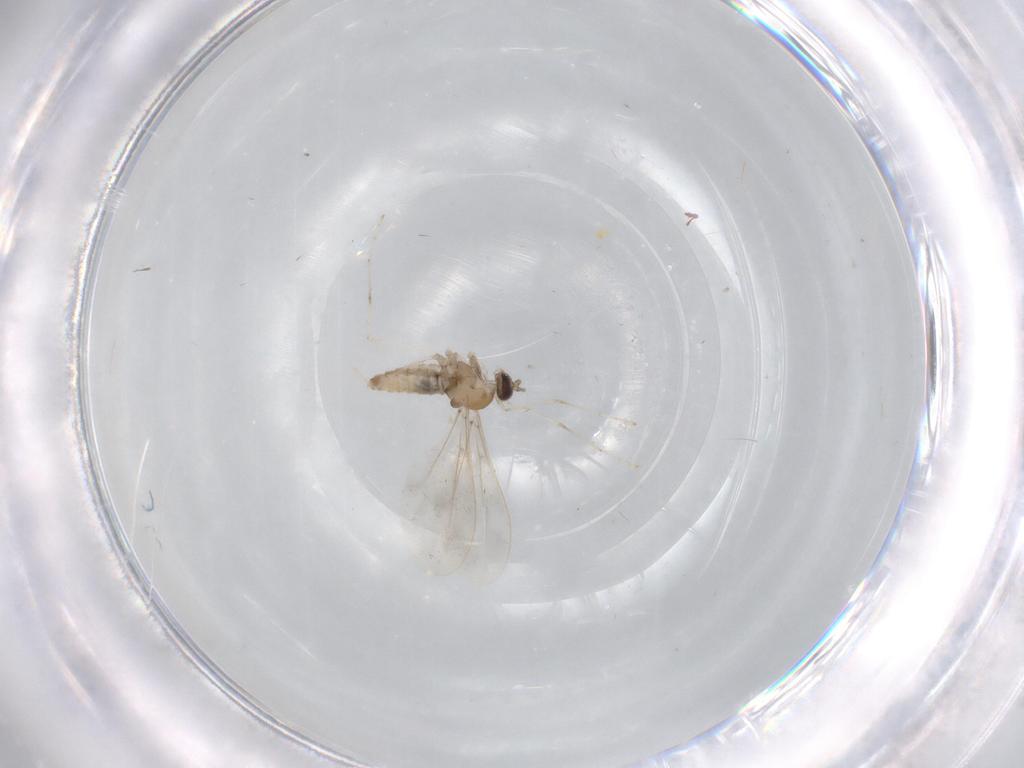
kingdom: Animalia
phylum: Arthropoda
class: Insecta
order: Diptera
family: Chironomidae
